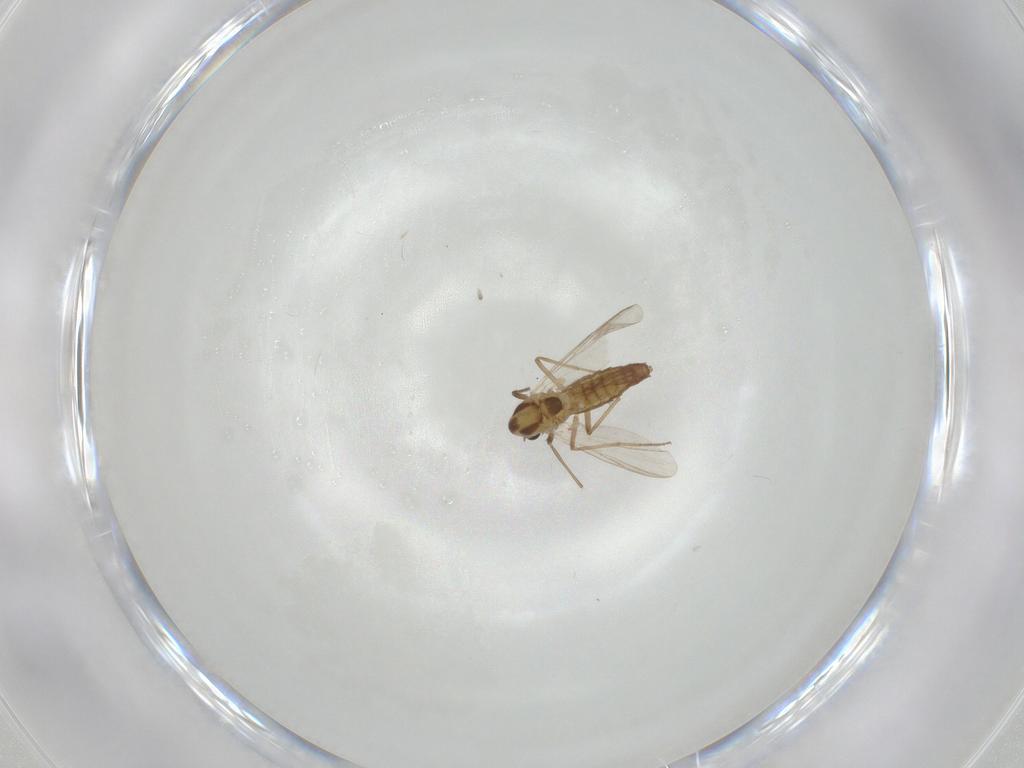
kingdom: Animalia
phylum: Arthropoda
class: Insecta
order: Diptera
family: Chironomidae
